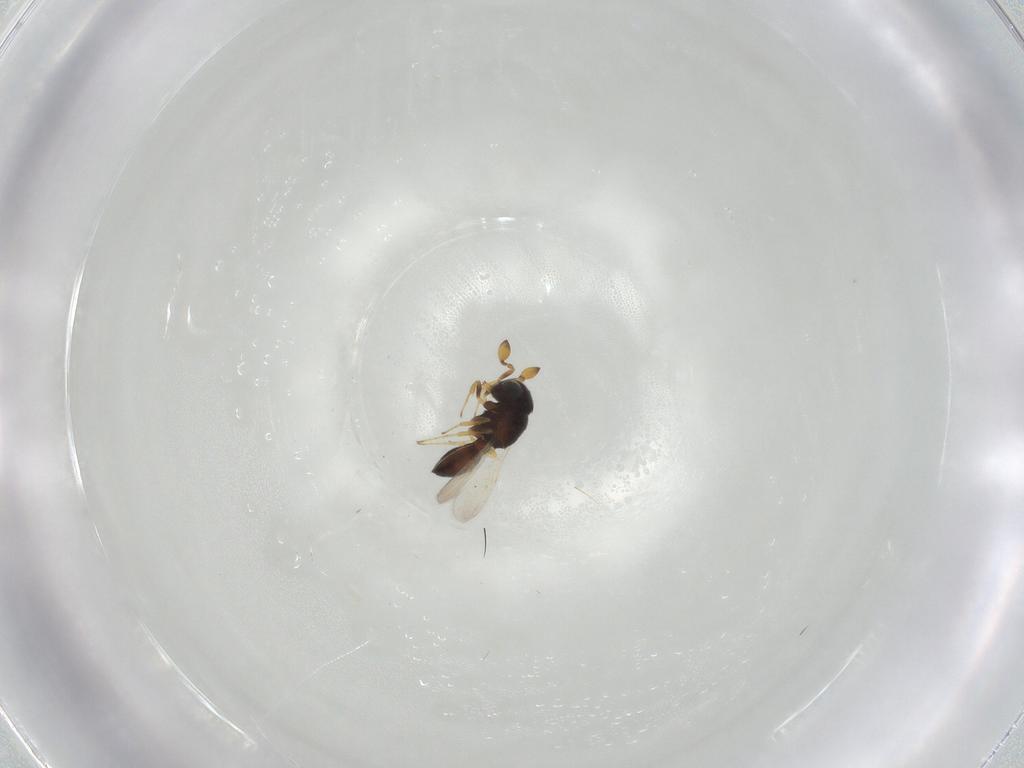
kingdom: Animalia
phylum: Arthropoda
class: Insecta
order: Hymenoptera
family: Scelionidae
